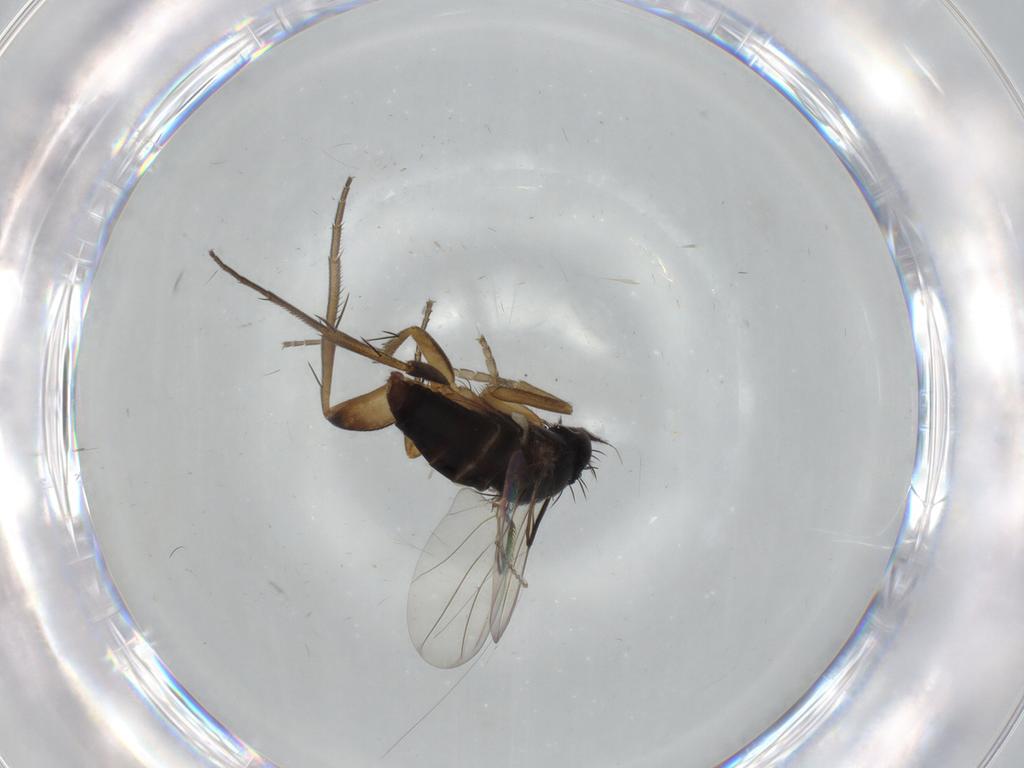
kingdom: Animalia
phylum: Arthropoda
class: Insecta
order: Diptera
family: Phoridae
